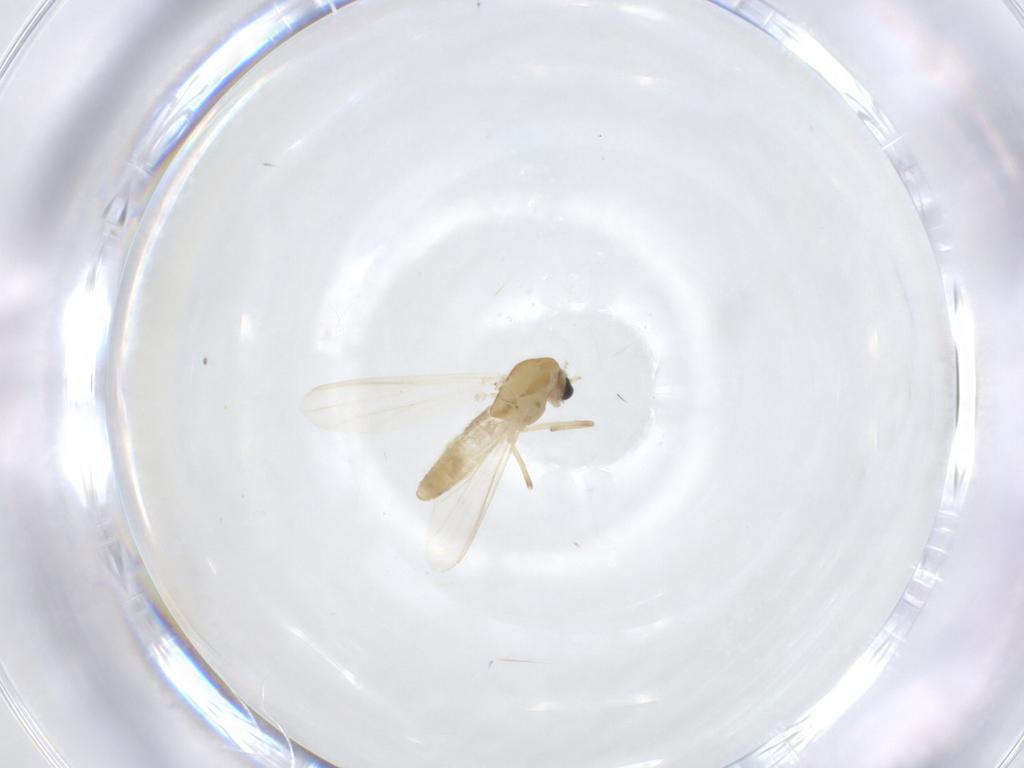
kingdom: Animalia
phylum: Arthropoda
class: Insecta
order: Diptera
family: Chironomidae
